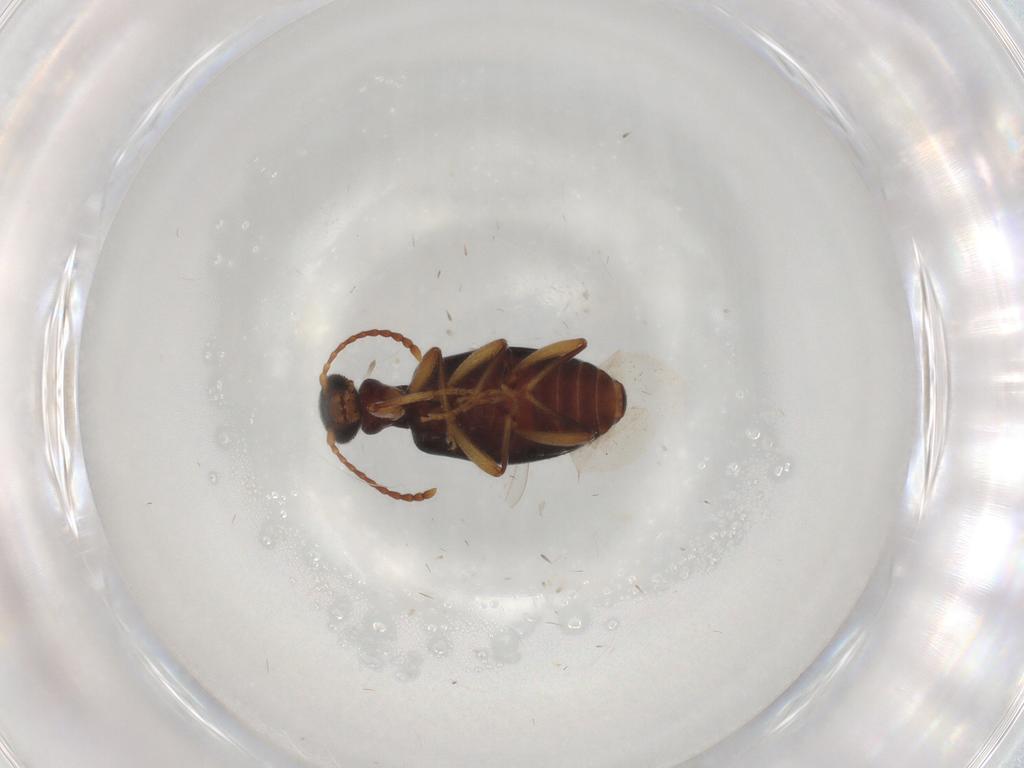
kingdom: Animalia
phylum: Arthropoda
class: Insecta
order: Coleoptera
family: Anthicidae
